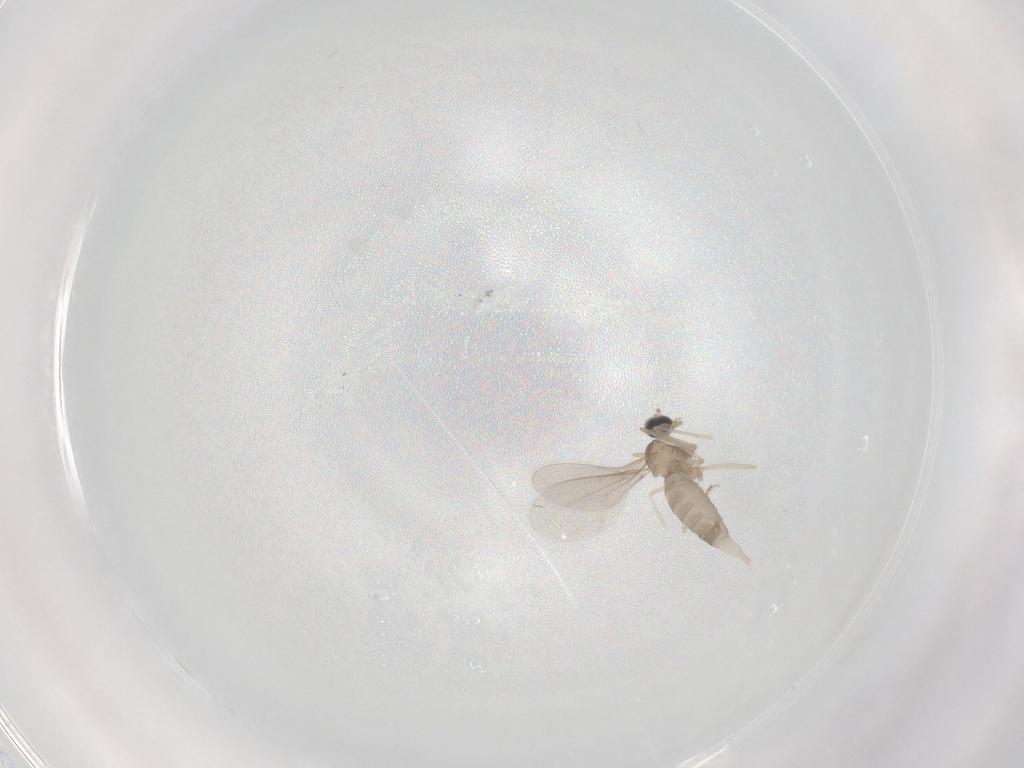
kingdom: Animalia
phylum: Arthropoda
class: Insecta
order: Diptera
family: Cecidomyiidae
